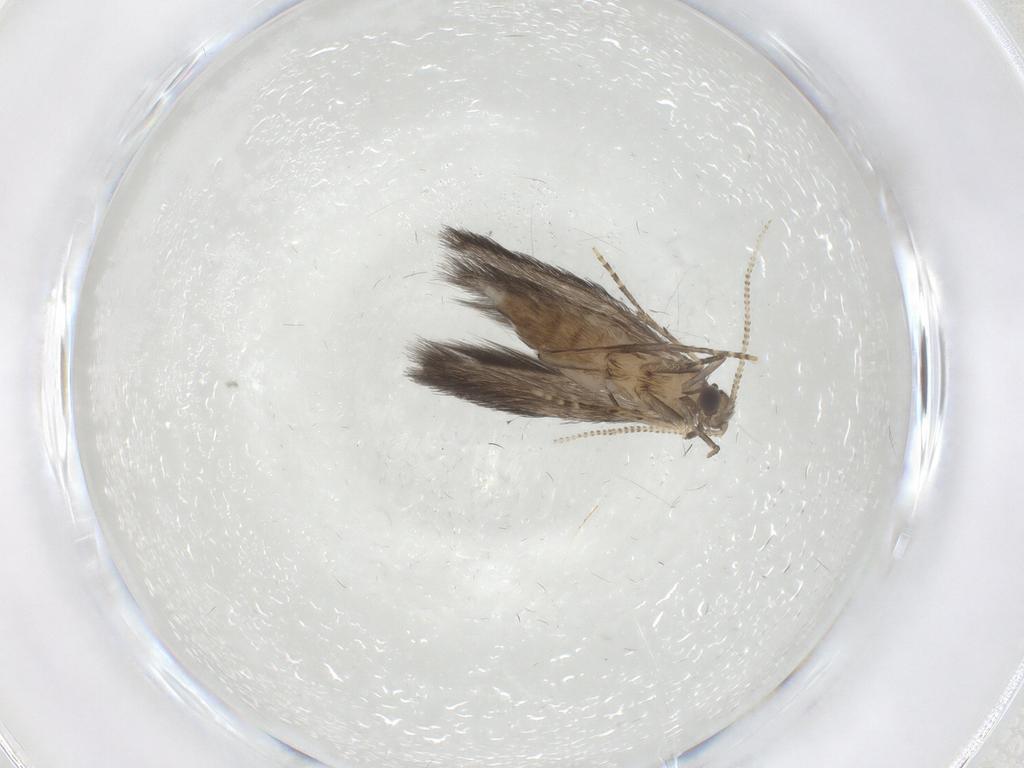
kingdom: Animalia
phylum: Arthropoda
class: Insecta
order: Trichoptera
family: Hydroptilidae
